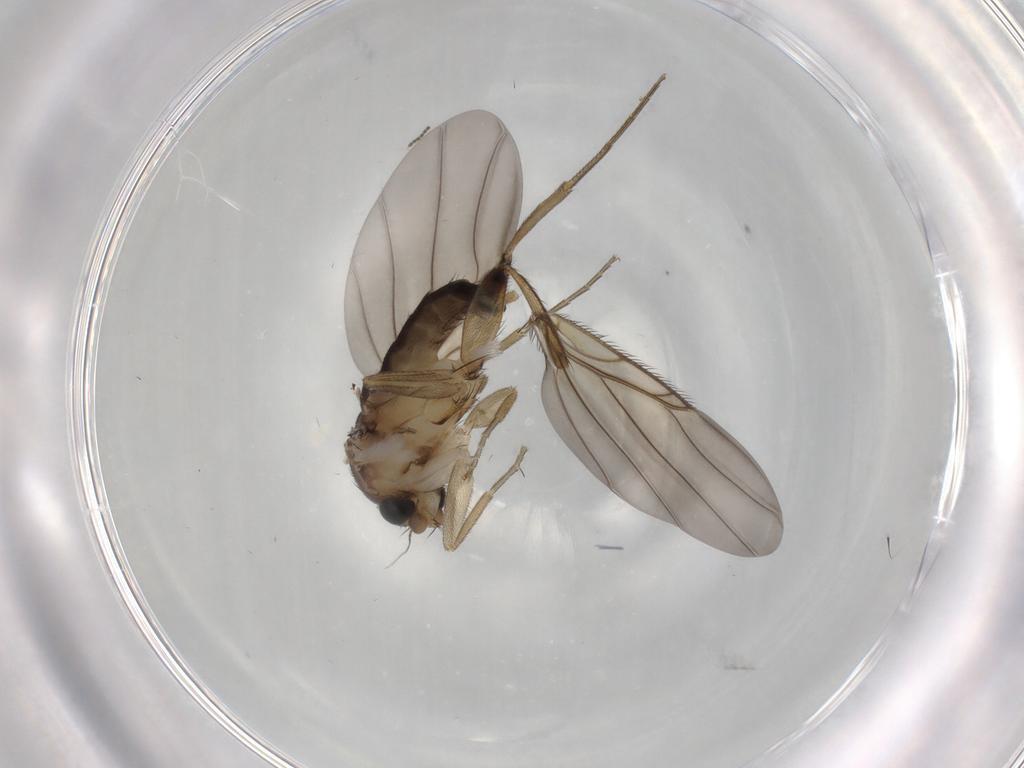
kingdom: Animalia
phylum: Arthropoda
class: Insecta
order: Diptera
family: Phoridae
